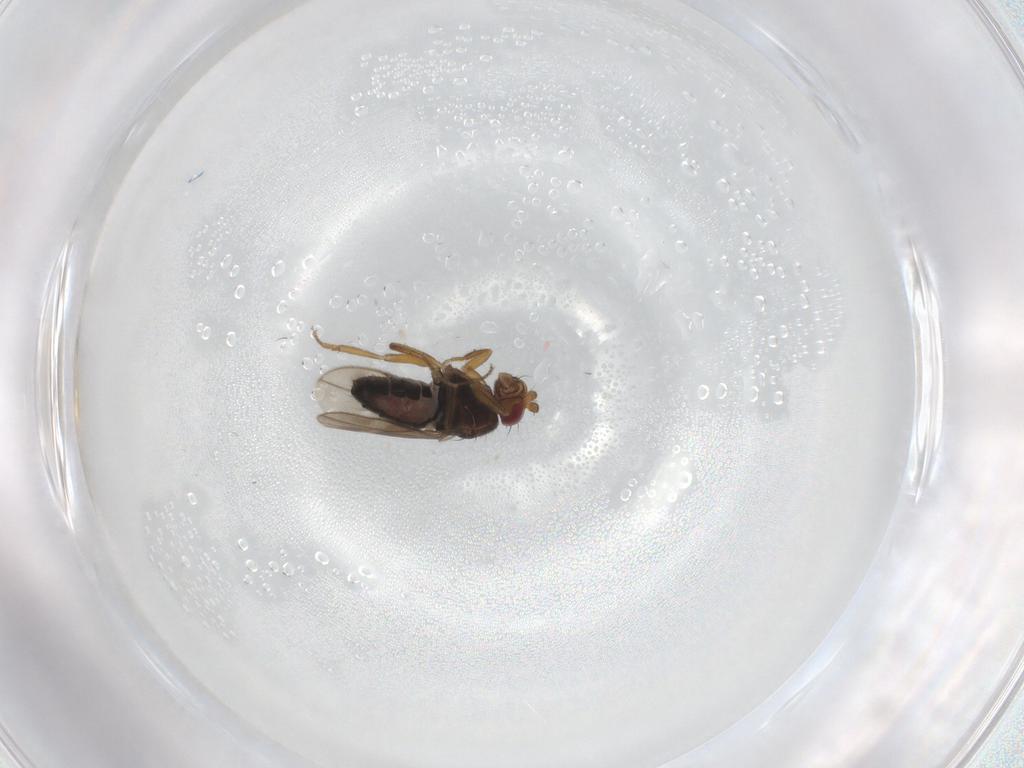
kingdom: Animalia
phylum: Arthropoda
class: Insecta
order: Diptera
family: Sphaeroceridae
